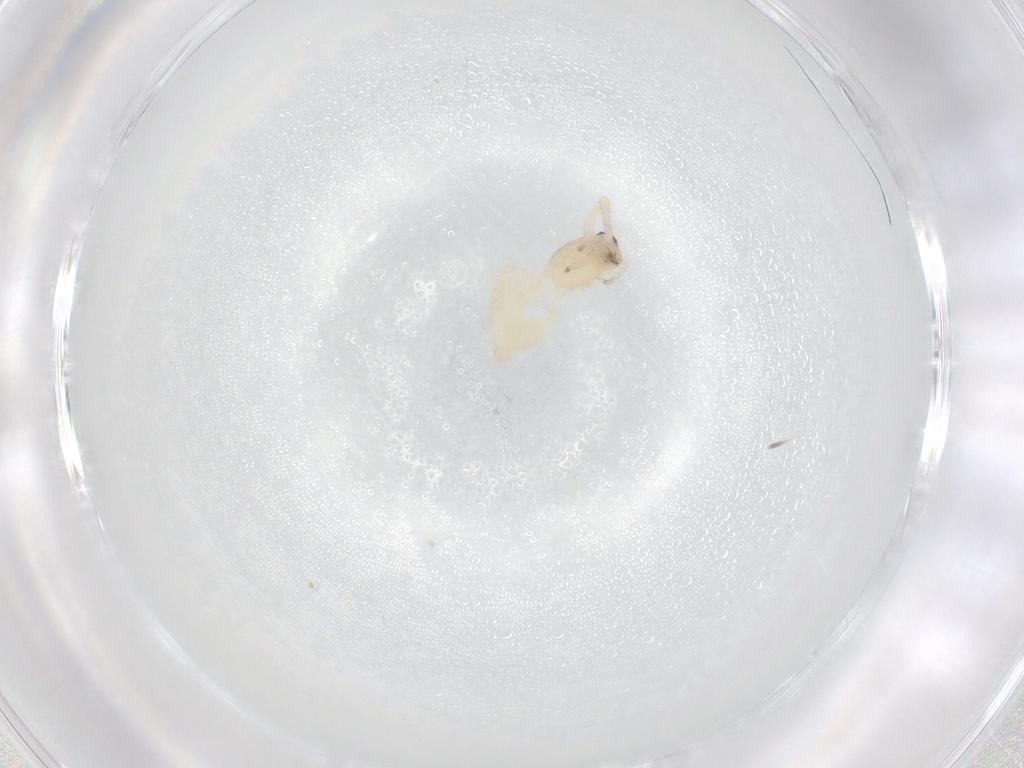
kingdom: Animalia
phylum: Arthropoda
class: Arachnida
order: Araneae
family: Anyphaenidae
